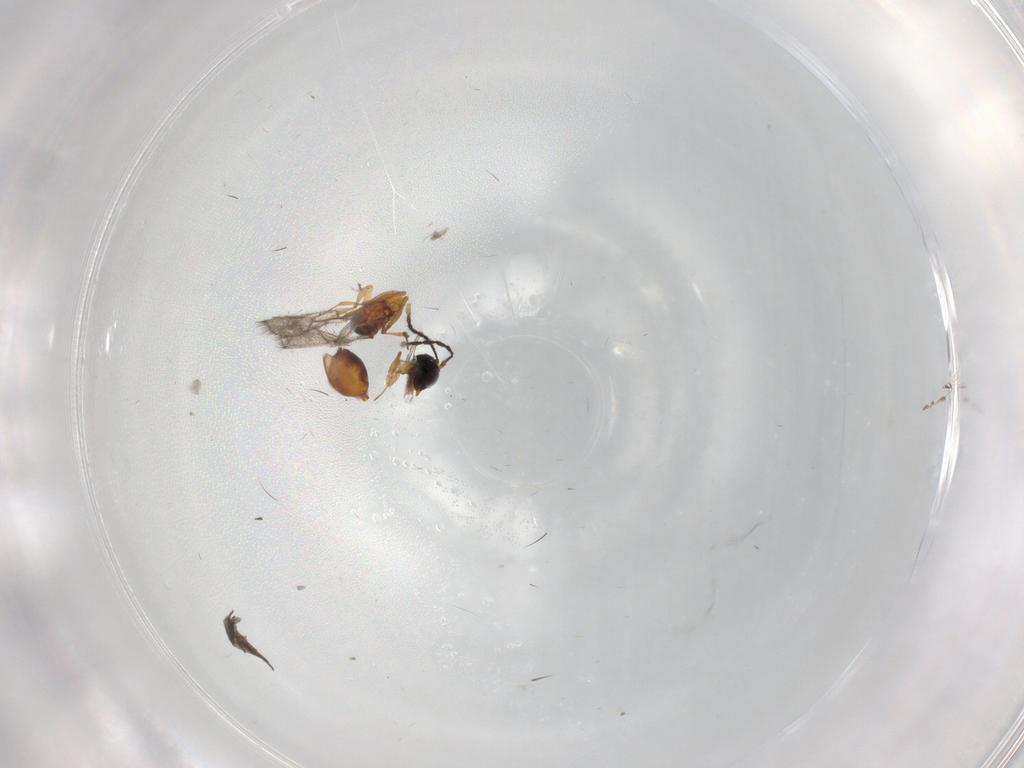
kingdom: Animalia
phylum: Arthropoda
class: Insecta
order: Hymenoptera
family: Figitidae
